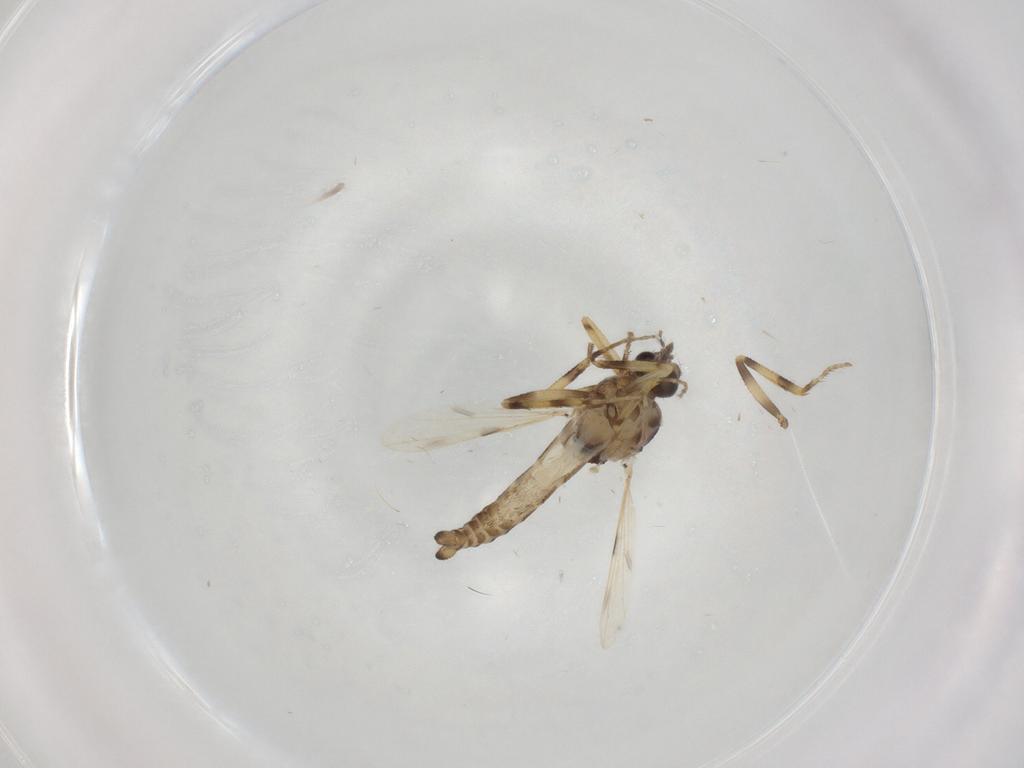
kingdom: Animalia
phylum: Arthropoda
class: Insecta
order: Diptera
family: Ceratopogonidae
